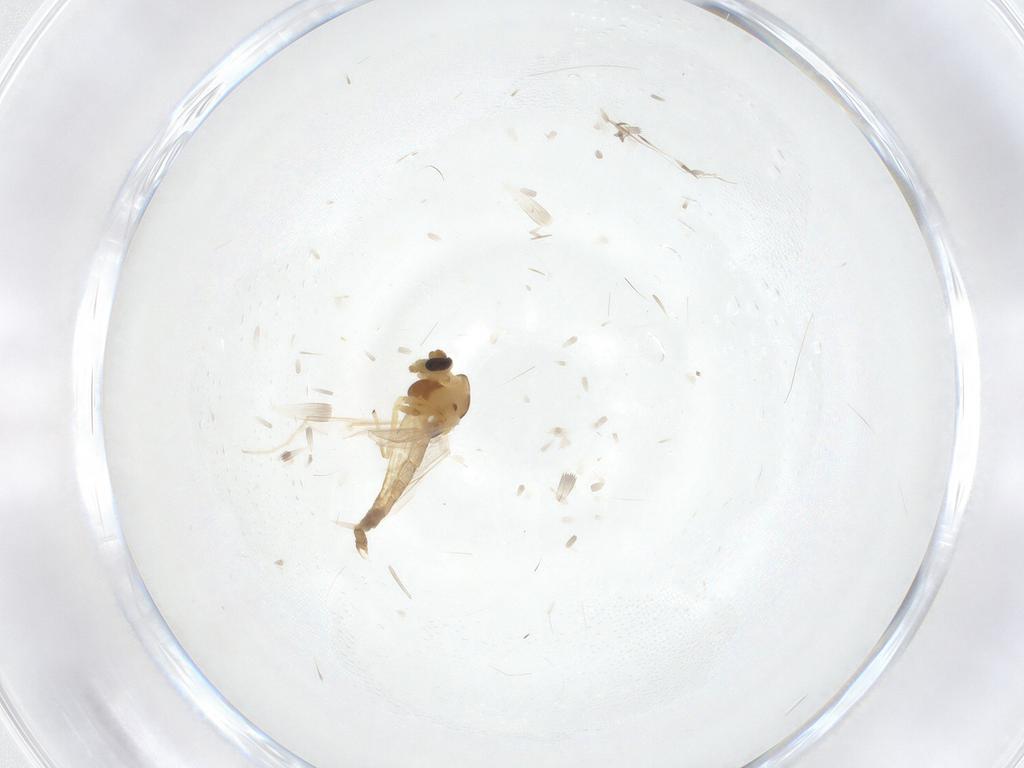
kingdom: Animalia
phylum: Arthropoda
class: Insecta
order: Diptera
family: Chironomidae
